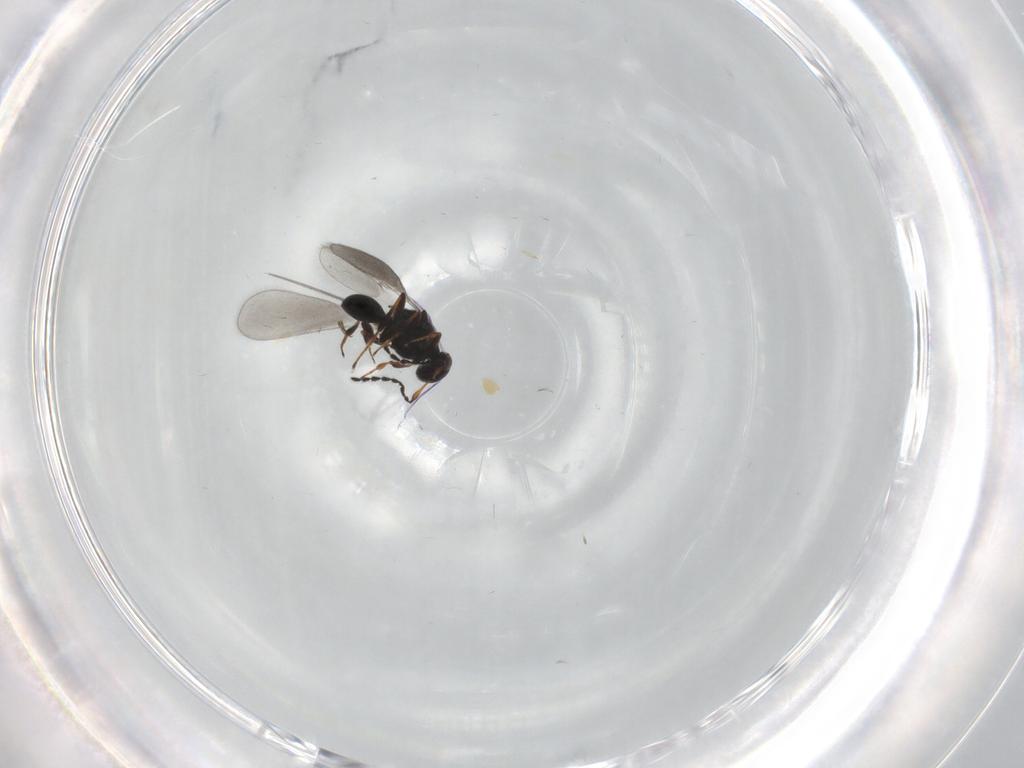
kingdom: Animalia
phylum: Arthropoda
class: Insecta
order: Hymenoptera
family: Platygastridae
